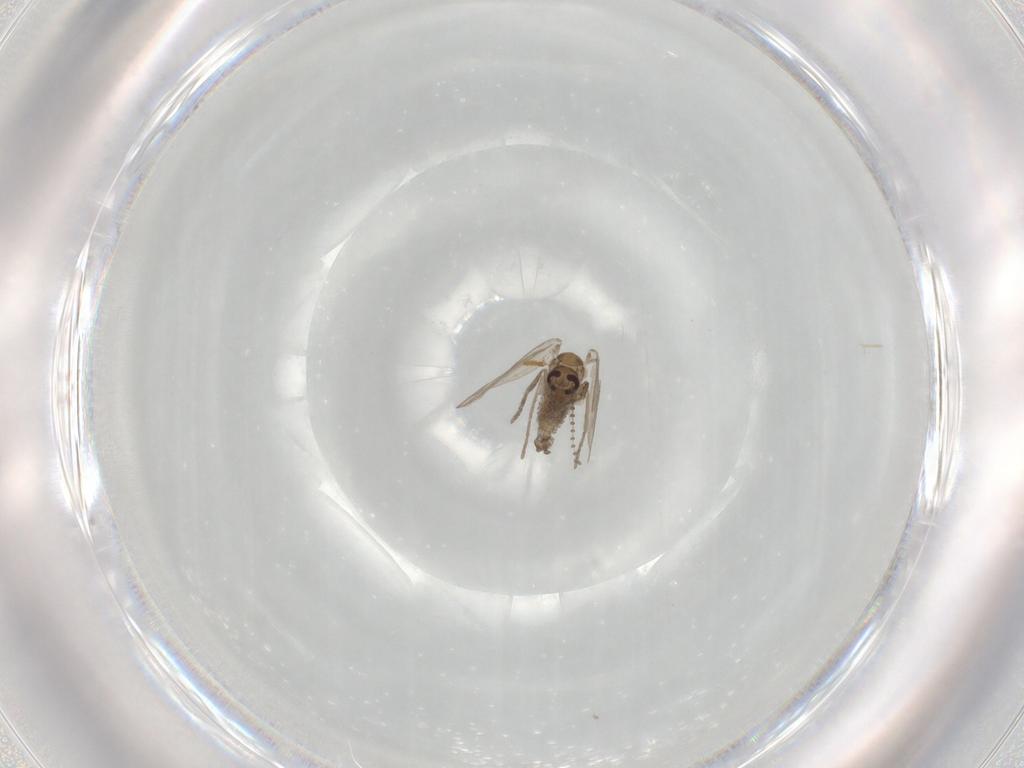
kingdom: Animalia
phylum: Arthropoda
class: Insecta
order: Diptera
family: Psychodidae
